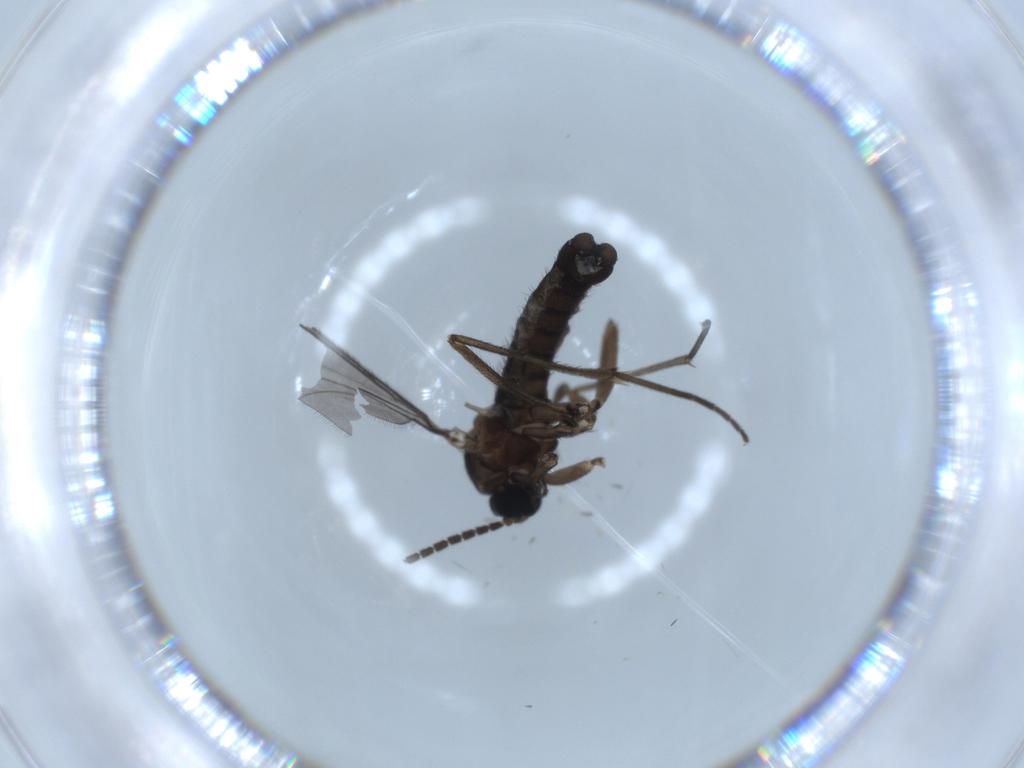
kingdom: Animalia
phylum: Arthropoda
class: Insecta
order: Diptera
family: Sciaridae
